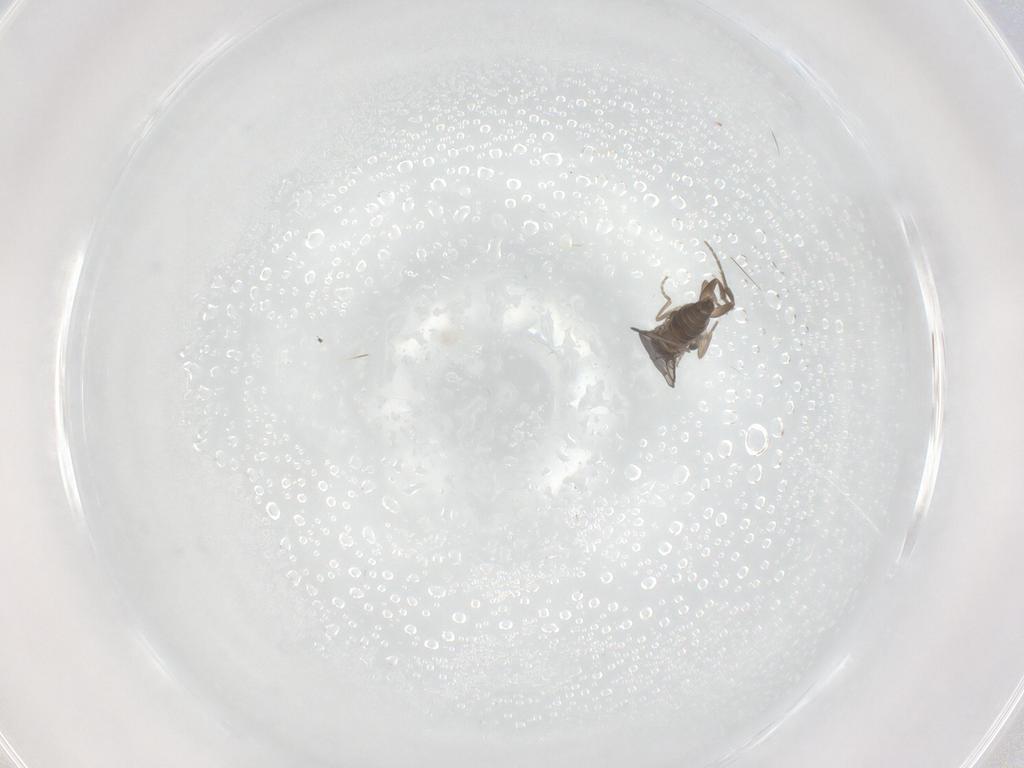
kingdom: Animalia
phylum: Arthropoda
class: Insecta
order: Diptera
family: Phoridae
